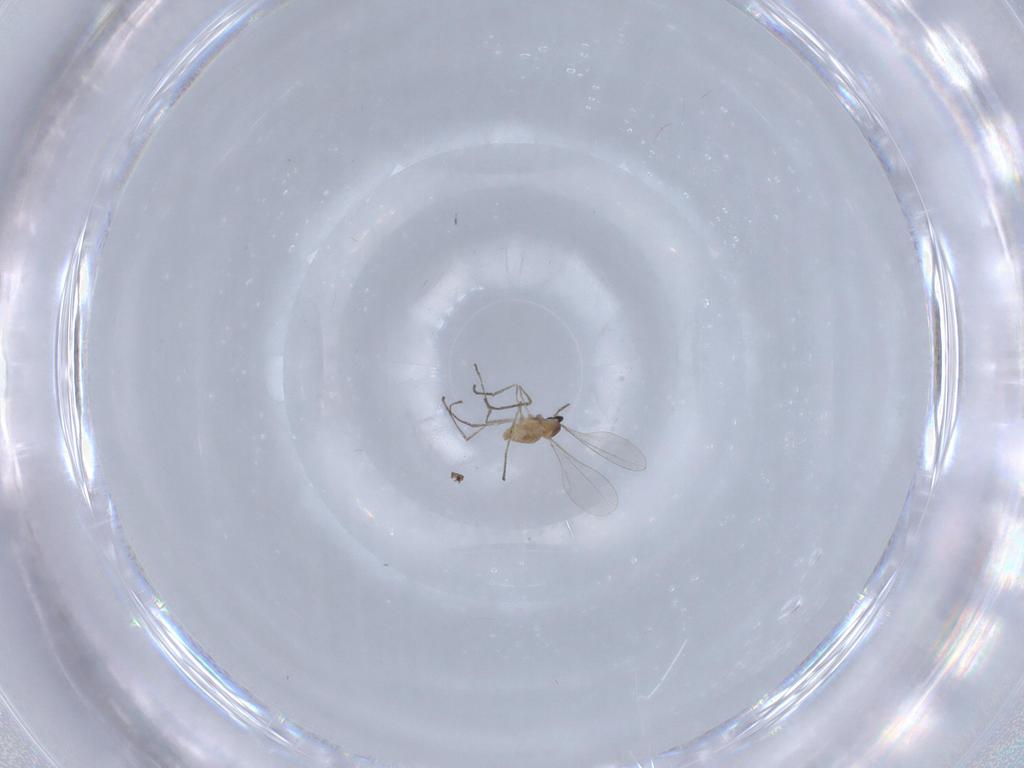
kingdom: Animalia
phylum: Arthropoda
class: Insecta
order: Diptera
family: Cecidomyiidae
